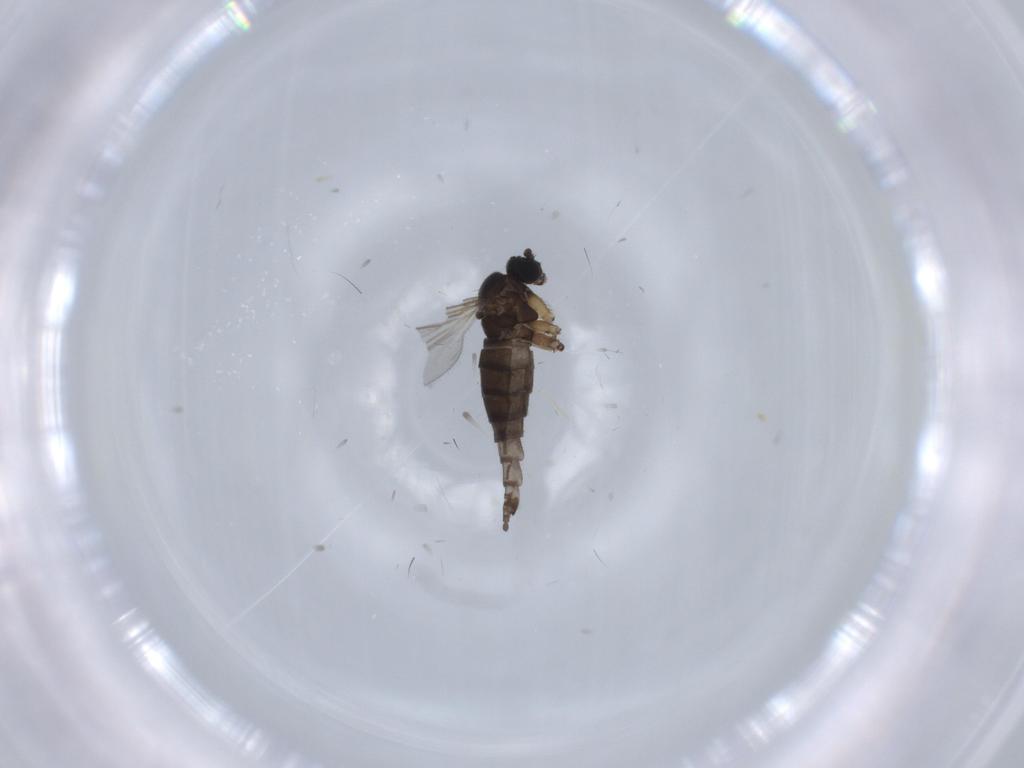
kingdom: Animalia
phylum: Arthropoda
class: Insecta
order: Diptera
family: Sciaridae
